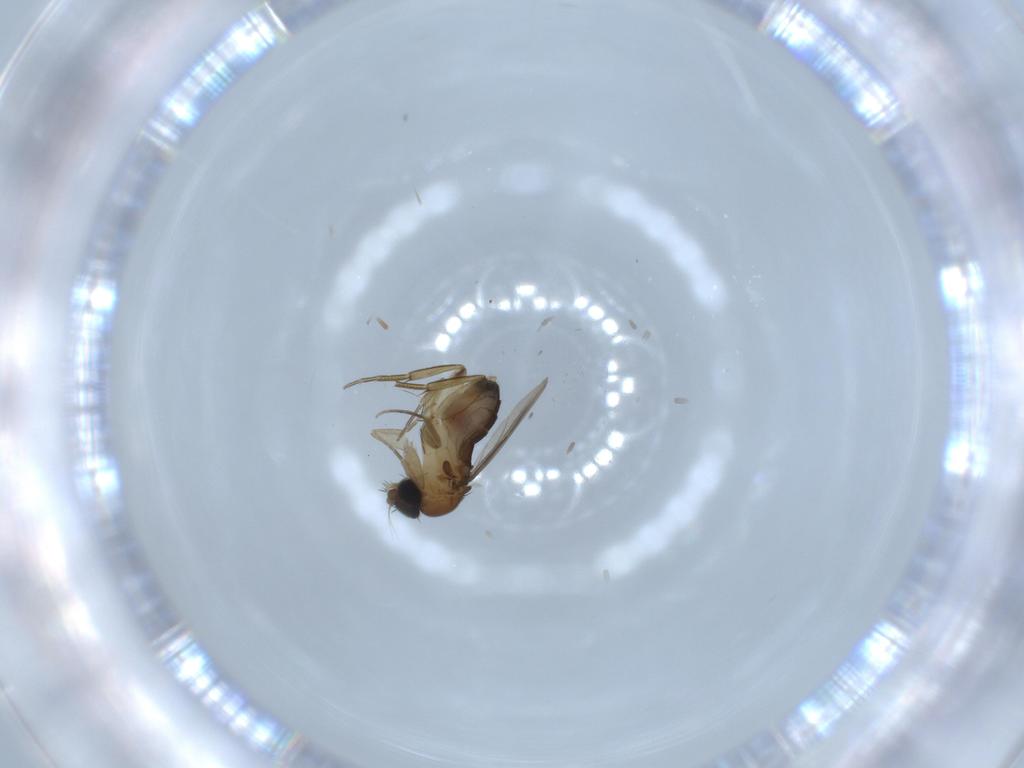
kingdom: Animalia
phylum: Arthropoda
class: Insecta
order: Diptera
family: Phoridae
